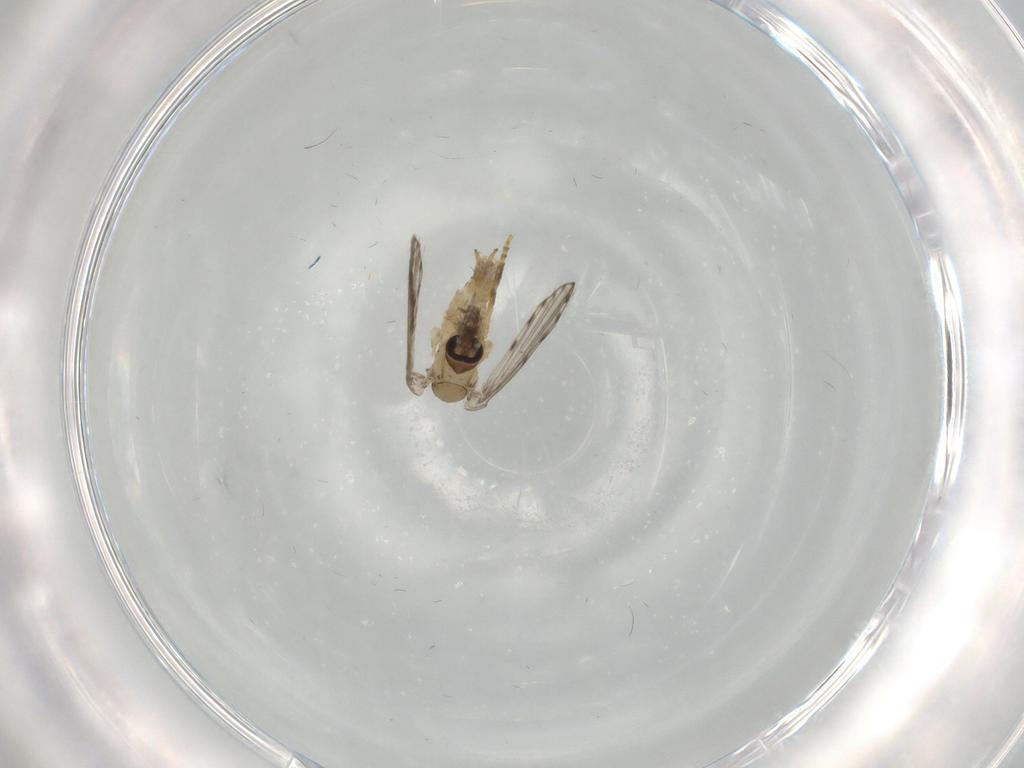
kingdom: Animalia
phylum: Arthropoda
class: Insecta
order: Diptera
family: Psychodidae
